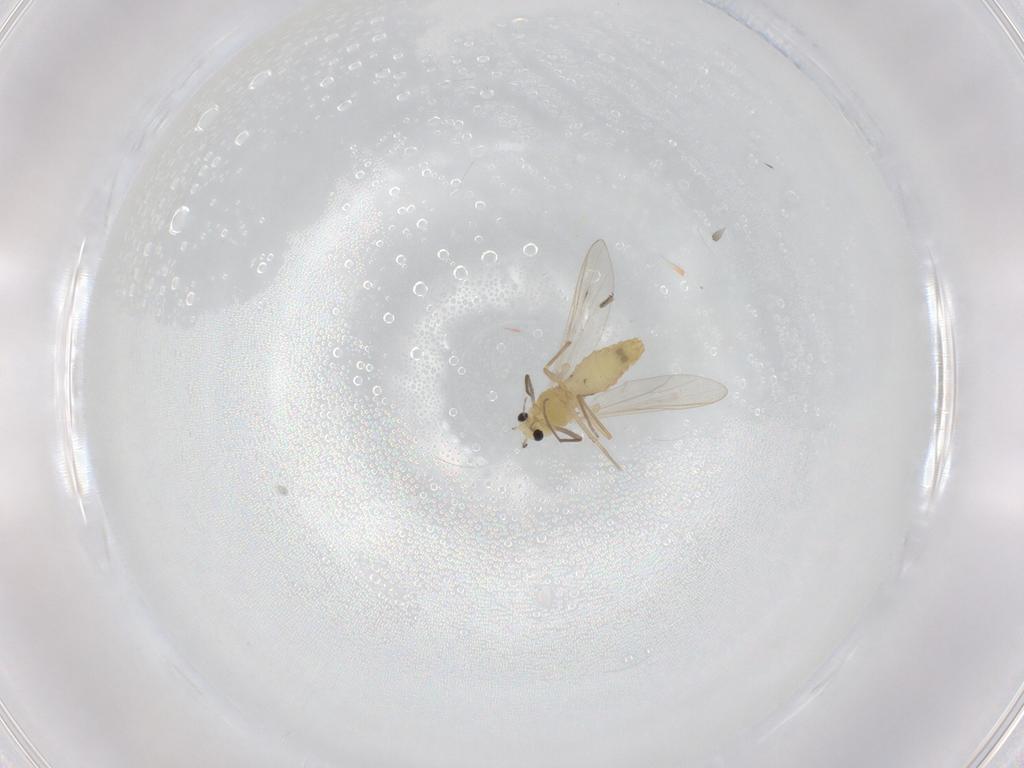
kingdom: Animalia
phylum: Arthropoda
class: Insecta
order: Diptera
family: Chironomidae
